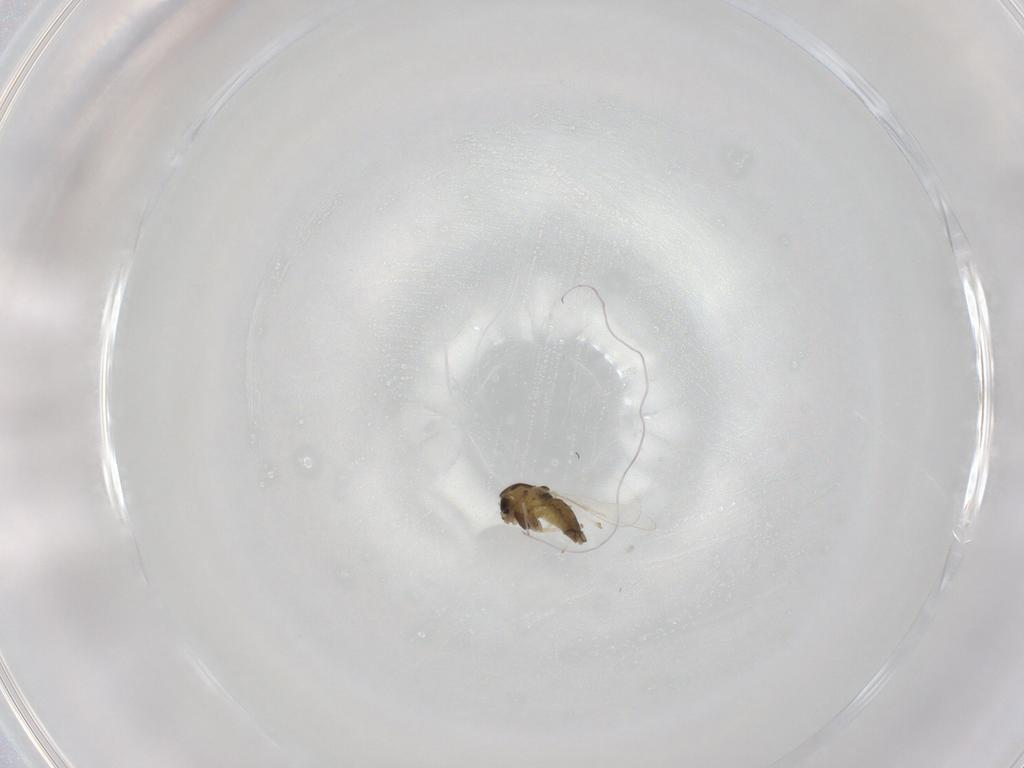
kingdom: Animalia
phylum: Arthropoda
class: Insecta
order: Diptera
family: Chironomidae
